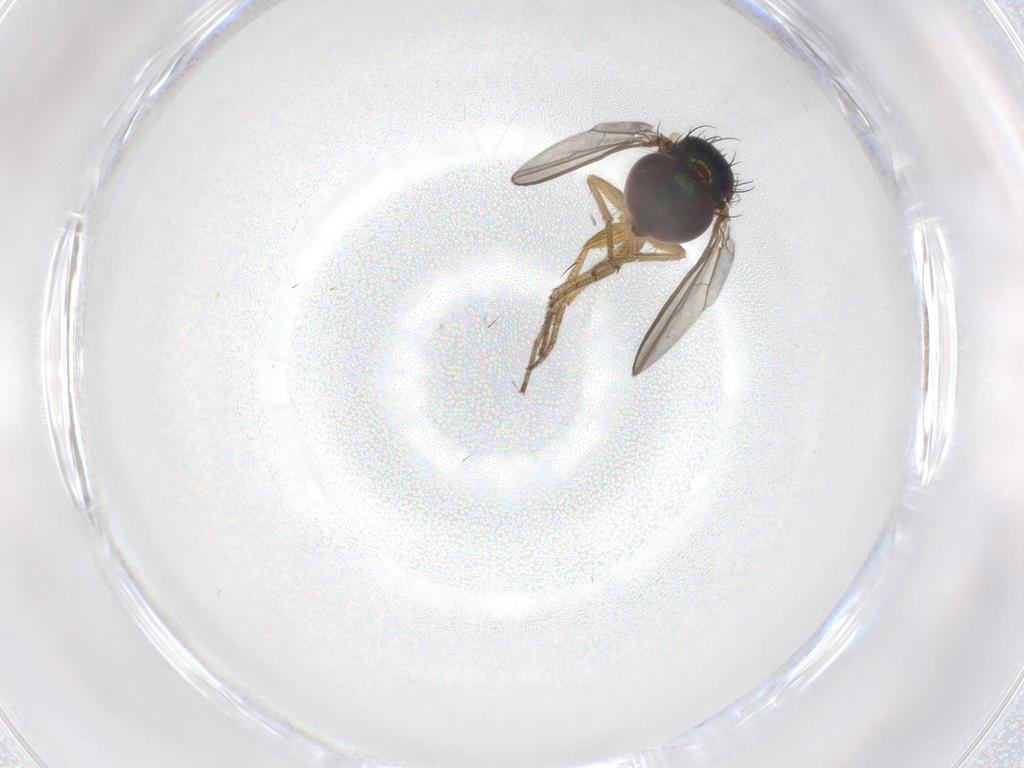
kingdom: Animalia
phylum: Arthropoda
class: Insecta
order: Diptera
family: Dolichopodidae
